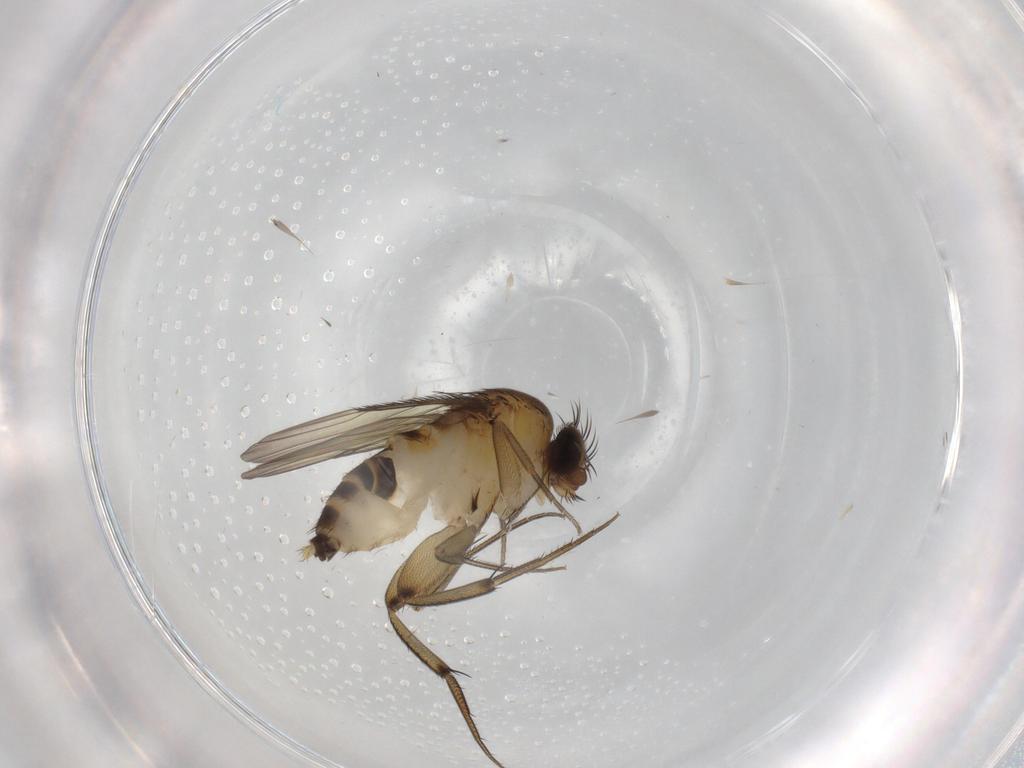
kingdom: Animalia
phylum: Arthropoda
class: Insecta
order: Diptera
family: Phoridae
